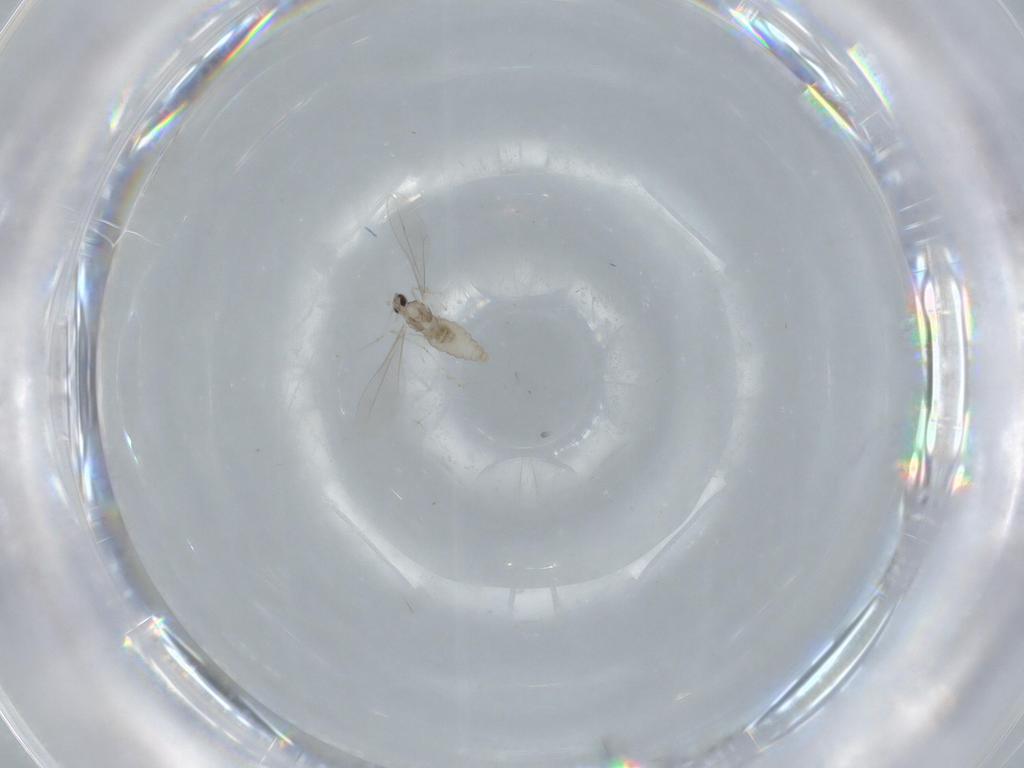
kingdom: Animalia
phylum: Arthropoda
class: Insecta
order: Diptera
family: Cecidomyiidae
